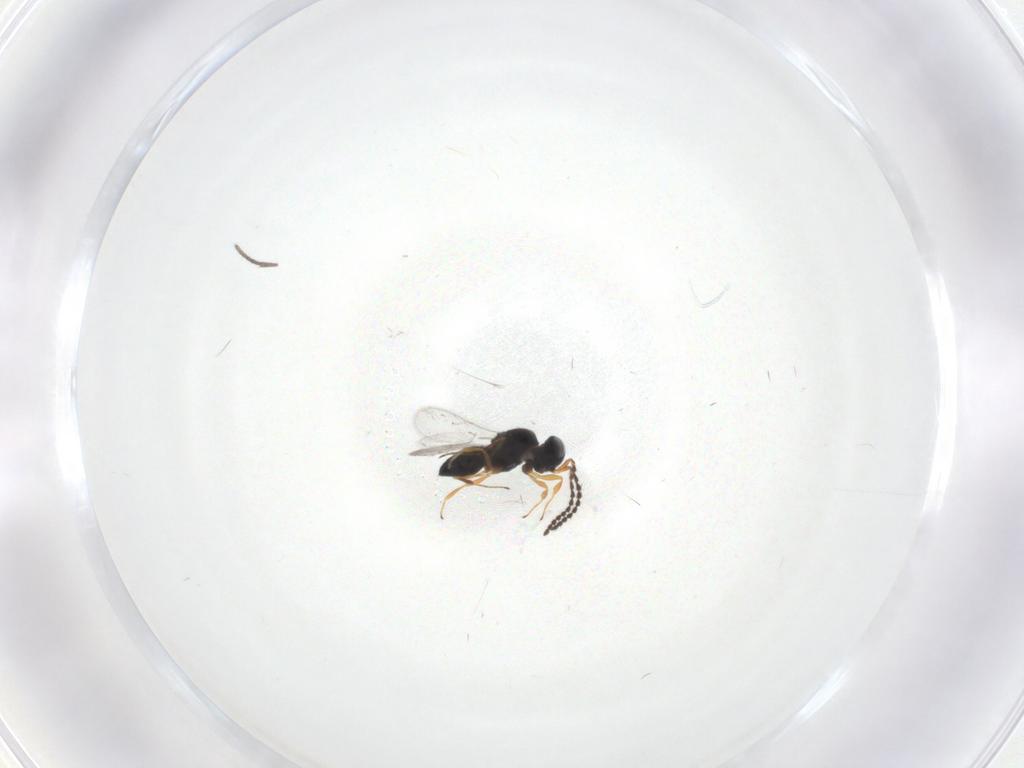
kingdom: Animalia
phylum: Arthropoda
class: Insecta
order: Hymenoptera
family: Scelionidae
